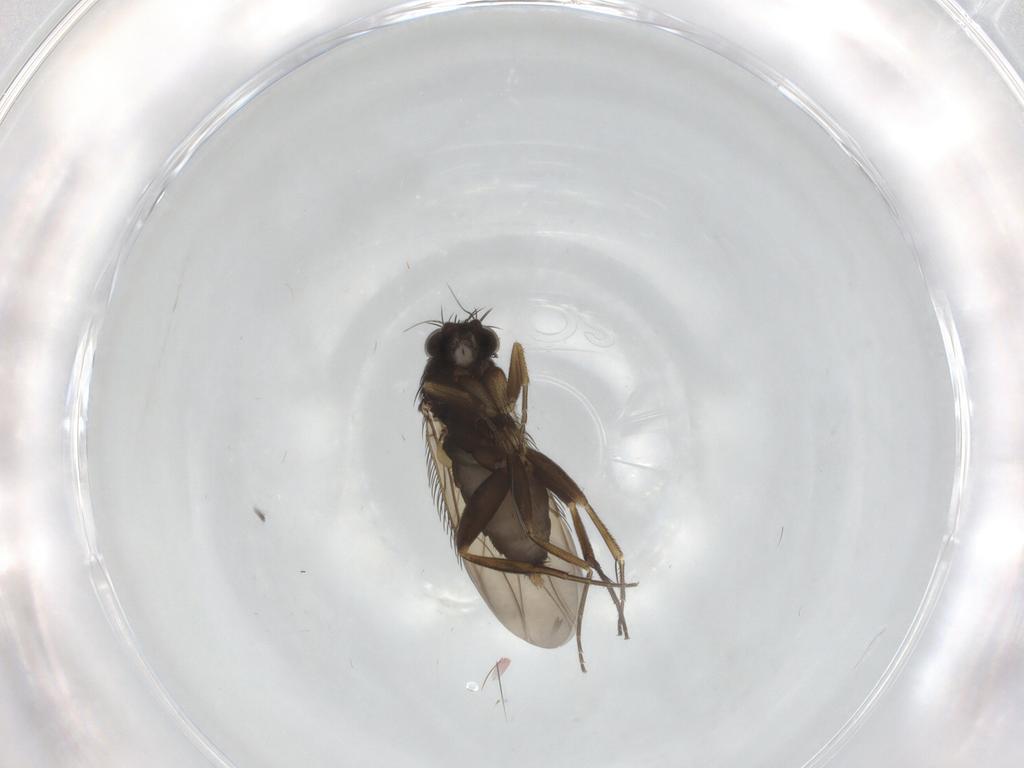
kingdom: Animalia
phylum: Arthropoda
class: Insecta
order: Diptera
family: Phoridae
